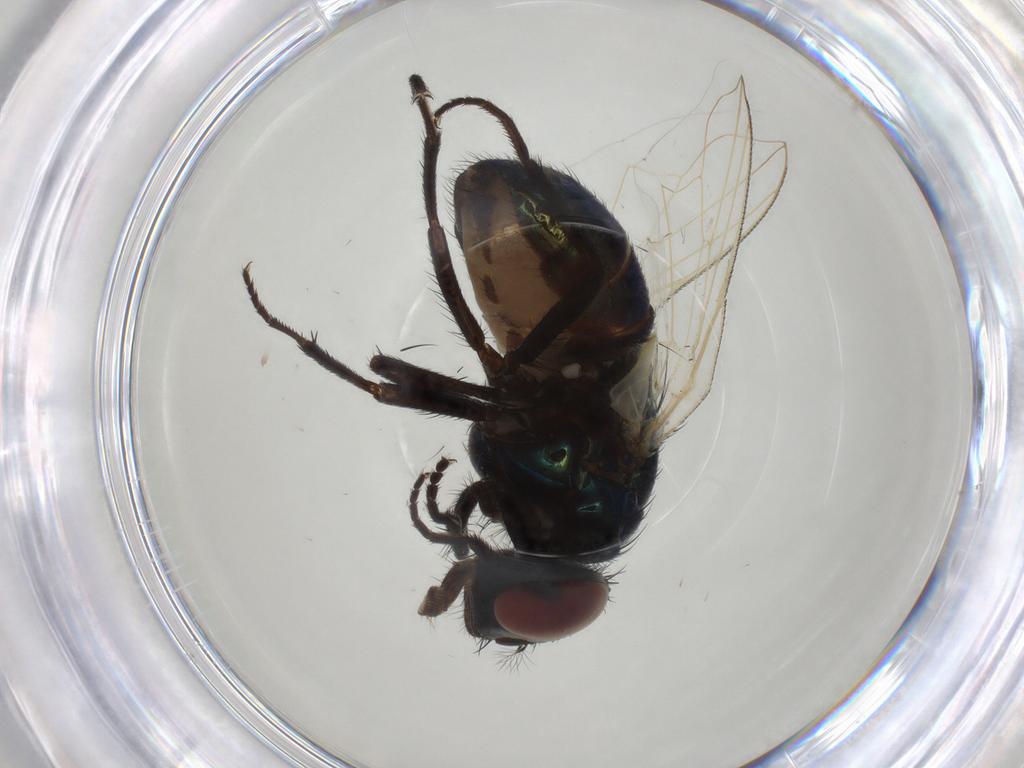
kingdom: Animalia
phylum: Arthropoda
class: Insecta
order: Diptera
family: Muscidae
